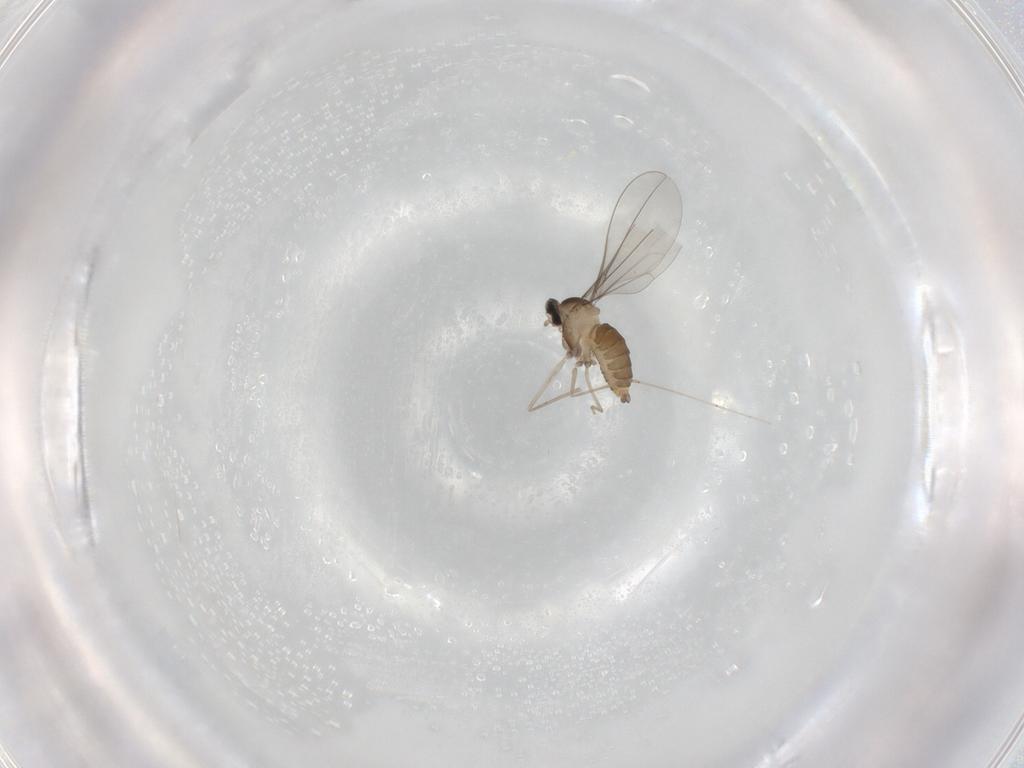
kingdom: Animalia
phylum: Arthropoda
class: Insecta
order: Diptera
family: Cecidomyiidae
